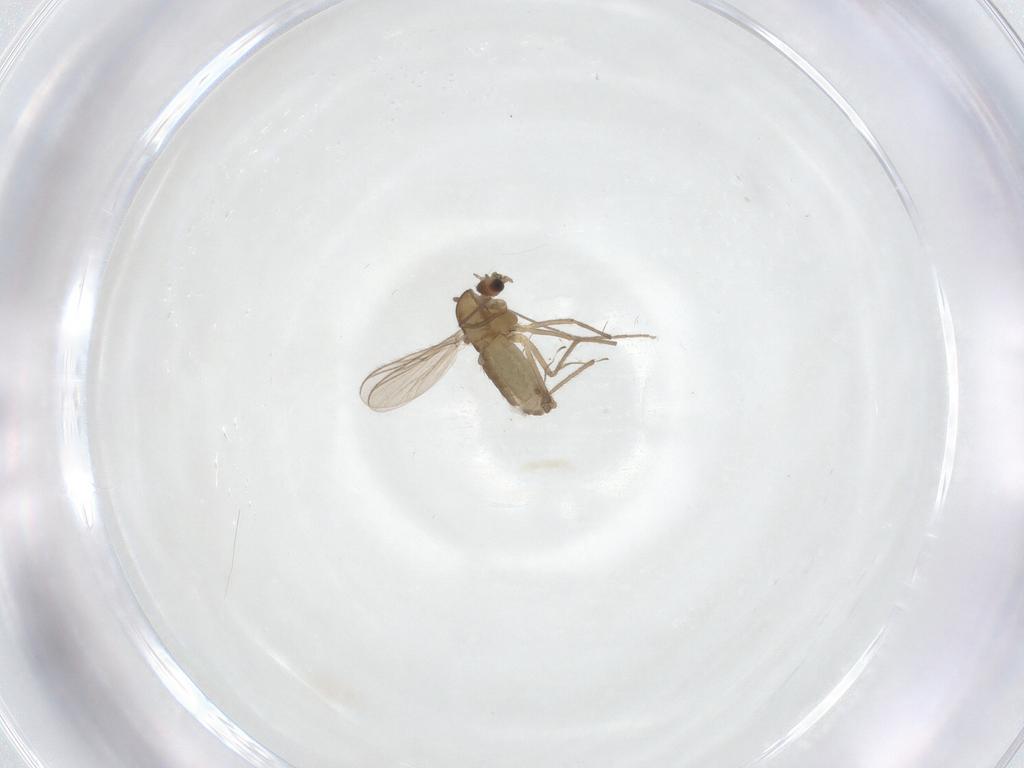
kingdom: Animalia
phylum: Arthropoda
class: Insecta
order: Diptera
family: Chironomidae
